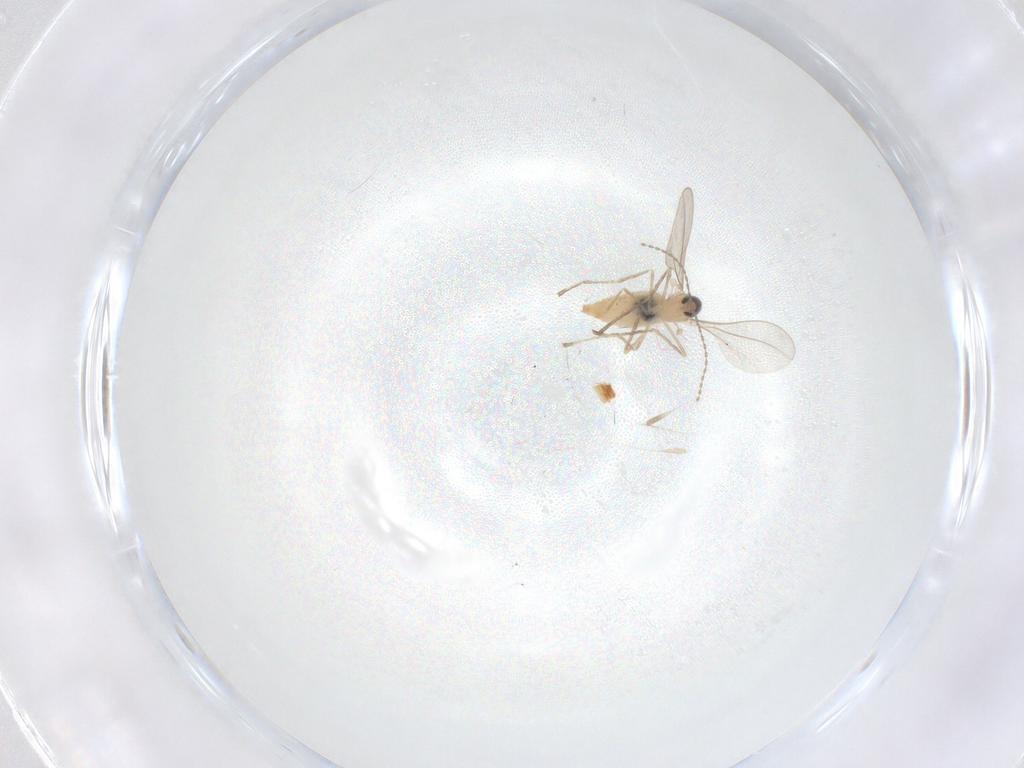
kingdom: Animalia
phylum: Arthropoda
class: Insecta
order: Diptera
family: Cecidomyiidae
